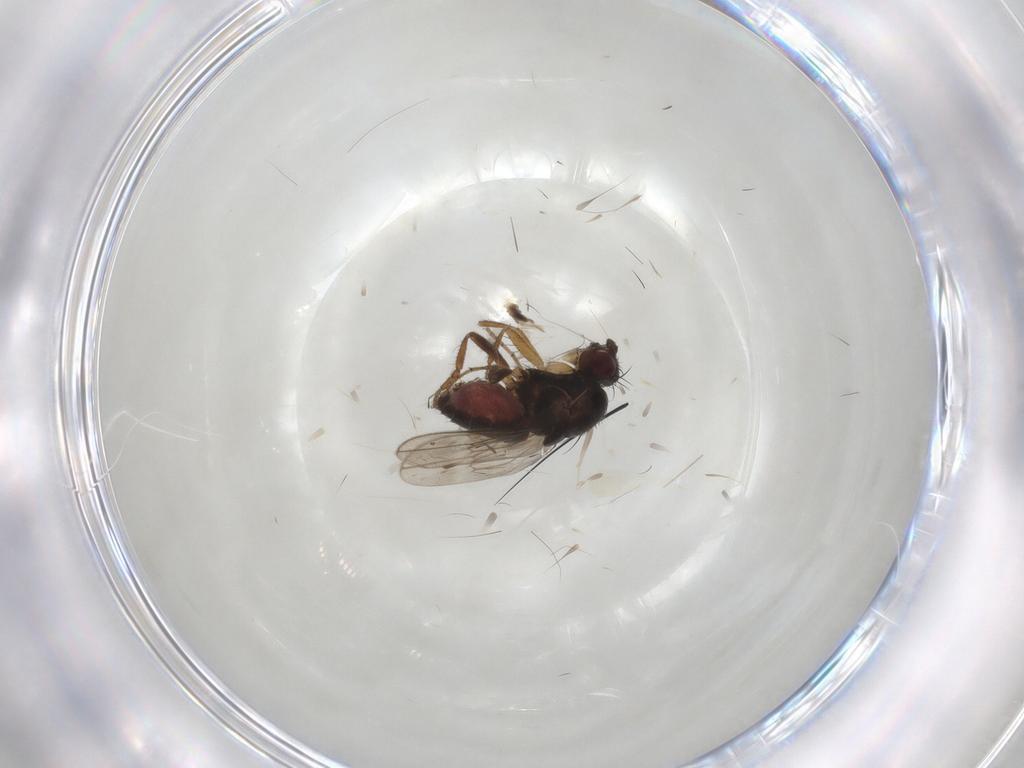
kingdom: Animalia
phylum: Arthropoda
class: Insecta
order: Diptera
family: Sphaeroceridae
